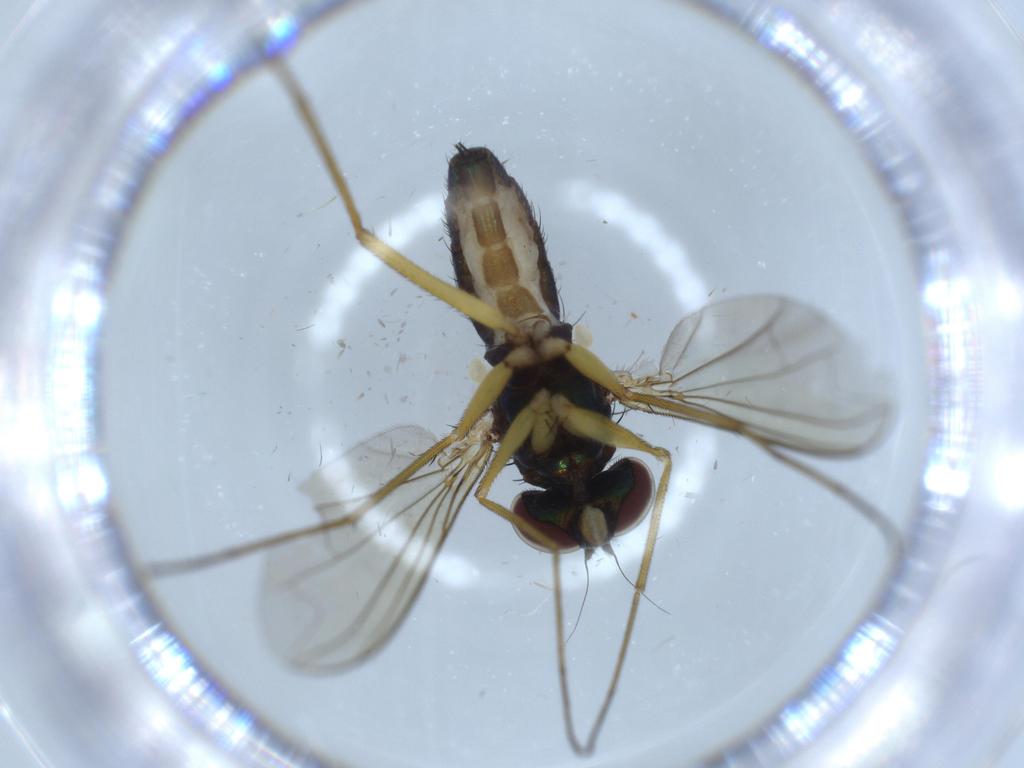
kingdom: Animalia
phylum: Arthropoda
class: Insecta
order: Diptera
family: Dolichopodidae
